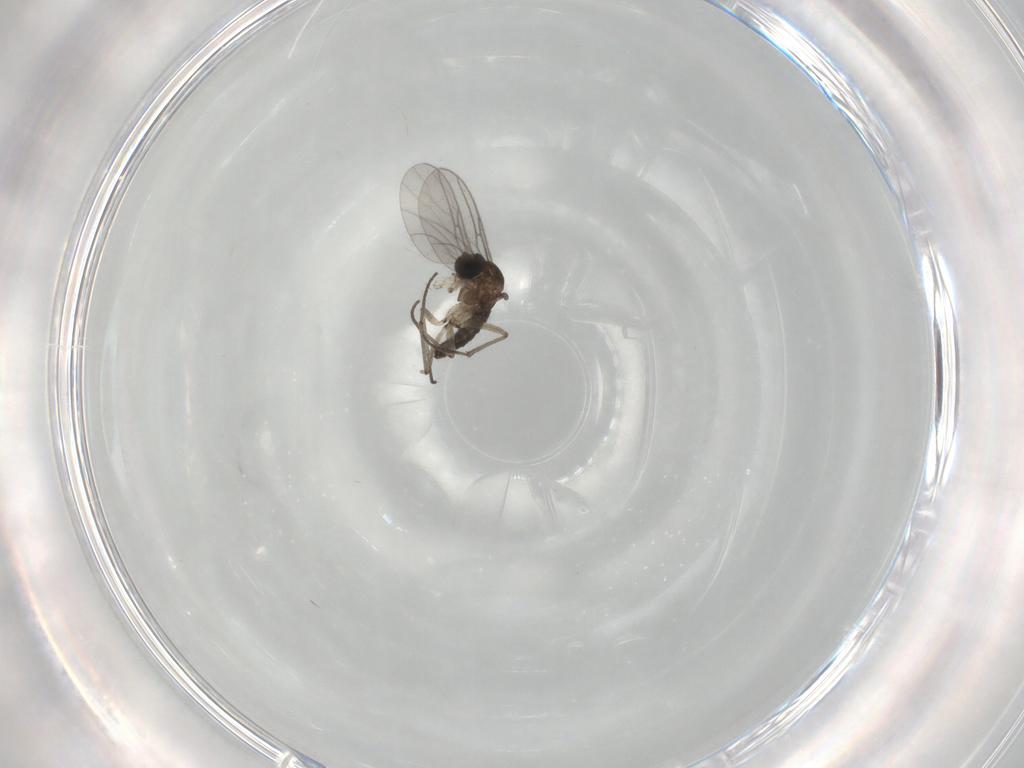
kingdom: Animalia
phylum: Arthropoda
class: Insecta
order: Diptera
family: Sciaridae
